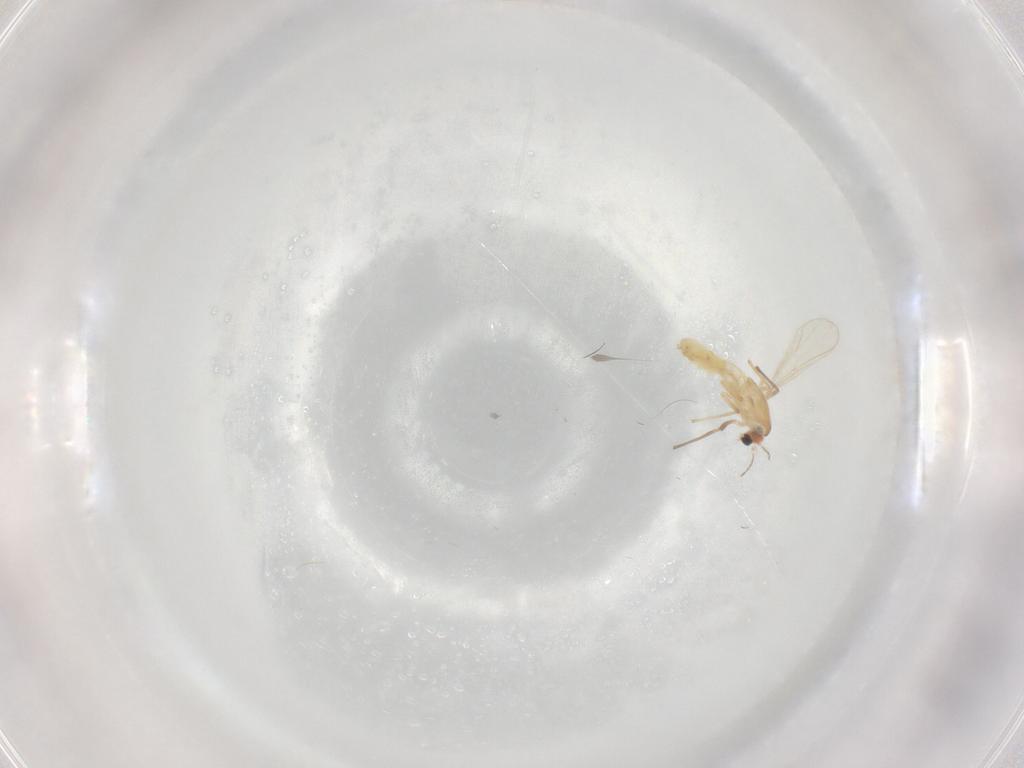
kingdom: Animalia
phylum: Arthropoda
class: Insecta
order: Diptera
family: Chironomidae
